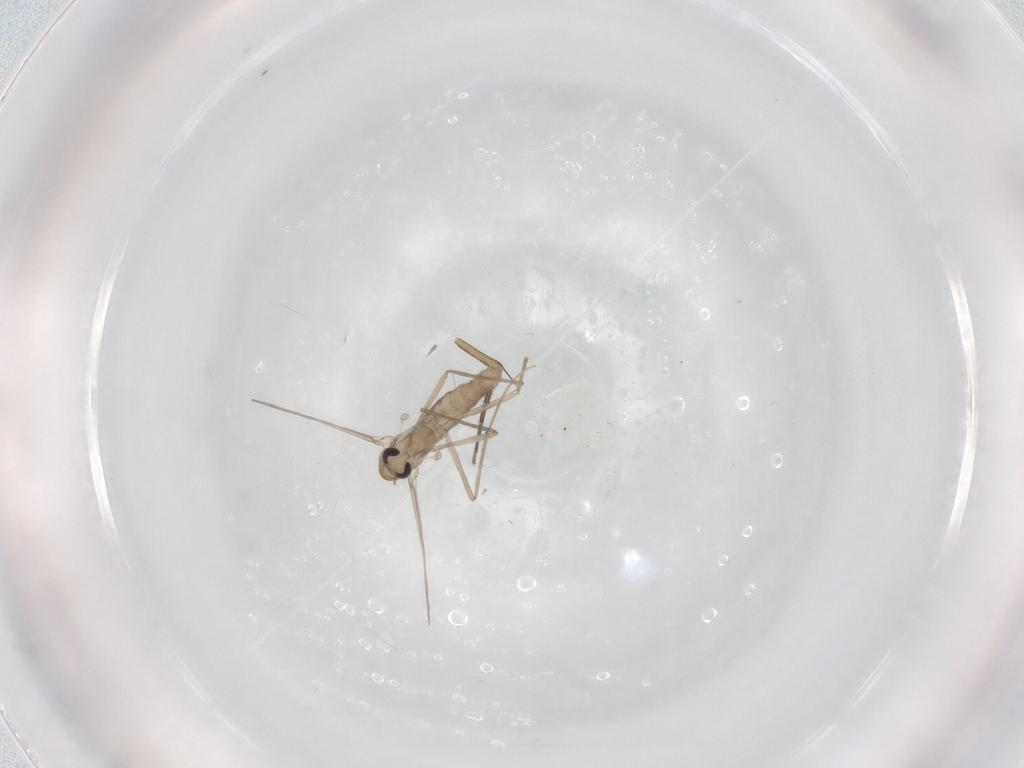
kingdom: Animalia
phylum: Arthropoda
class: Insecta
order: Diptera
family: Chironomidae
